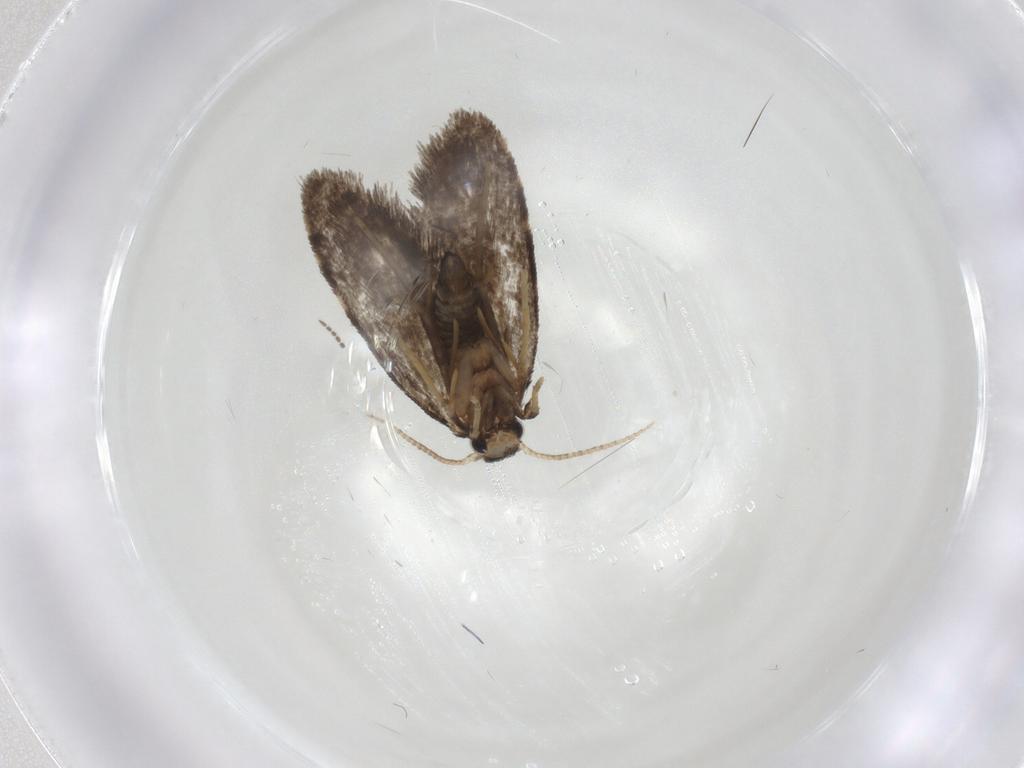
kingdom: Animalia
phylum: Arthropoda
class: Insecta
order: Lepidoptera
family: Psychidae
